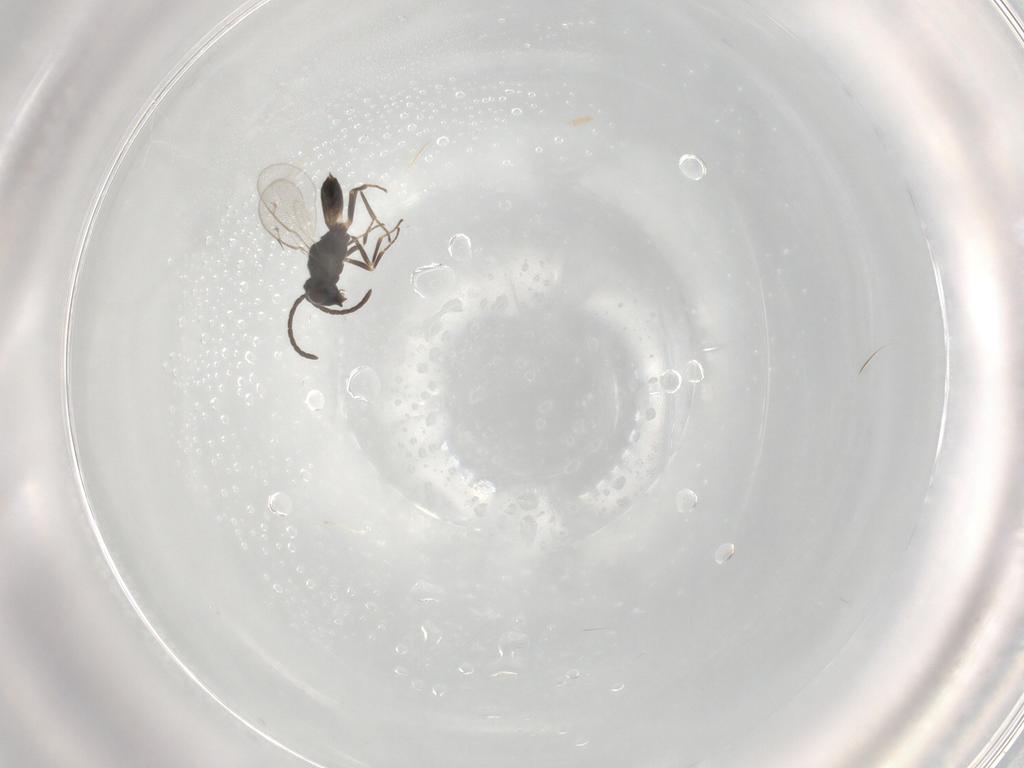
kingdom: Animalia
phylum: Arthropoda
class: Insecta
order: Hymenoptera
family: Eupelmidae
